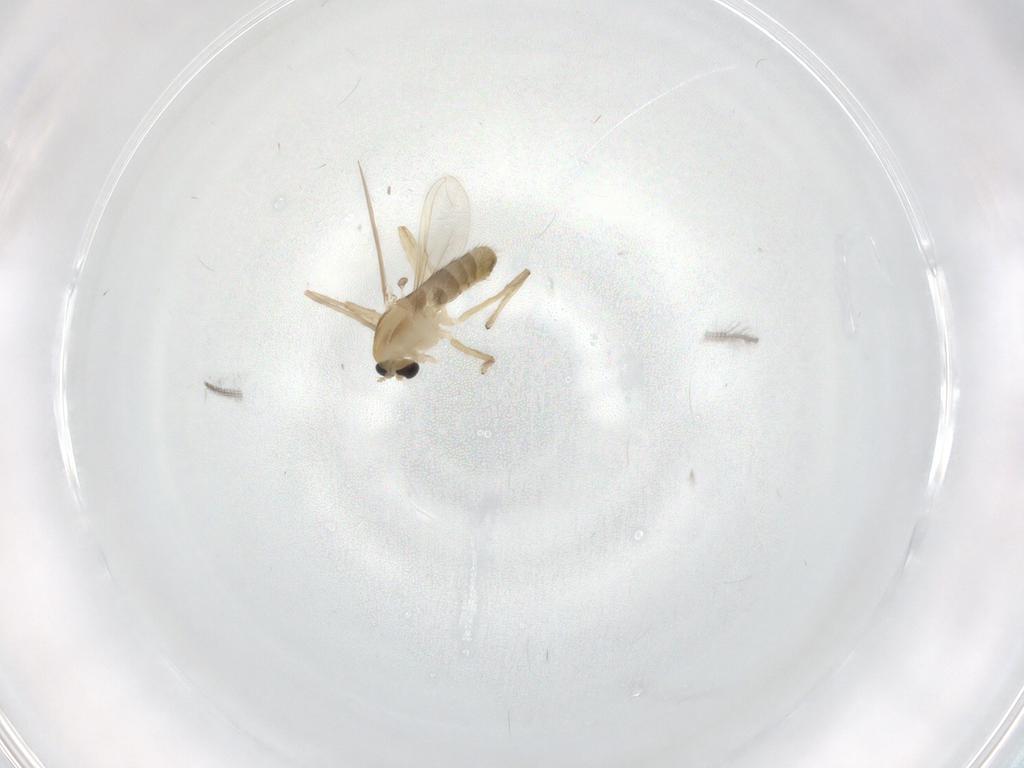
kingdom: Animalia
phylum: Arthropoda
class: Insecta
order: Diptera
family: Chironomidae
